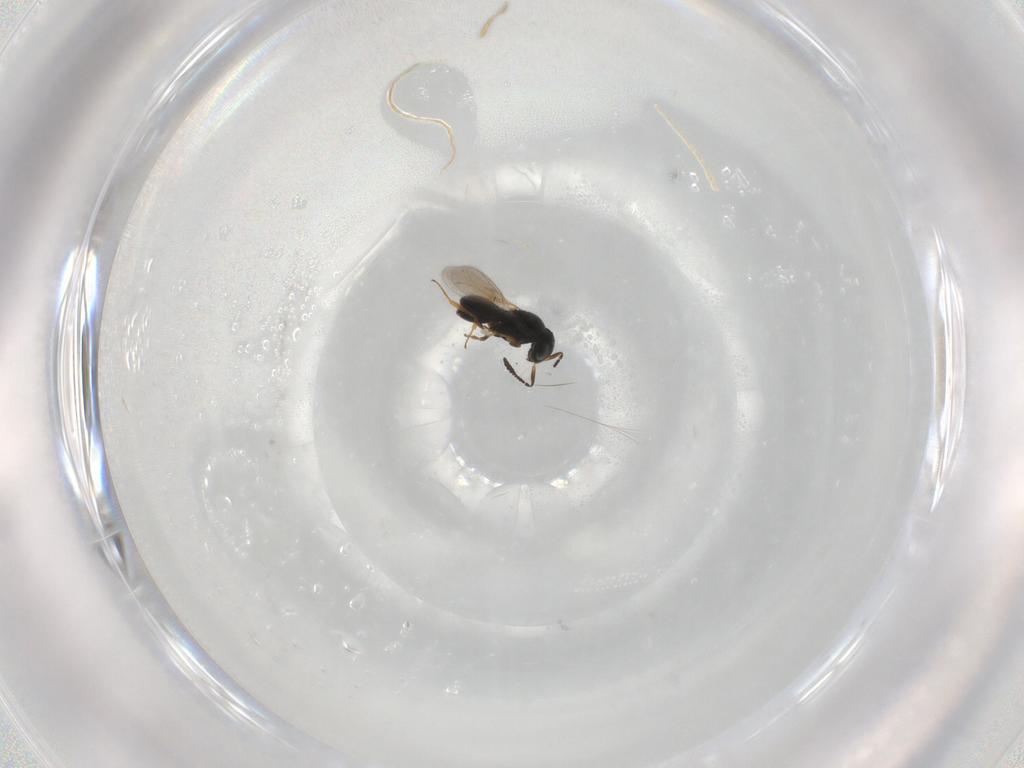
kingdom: Animalia
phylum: Arthropoda
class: Insecta
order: Hymenoptera
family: Scelionidae
